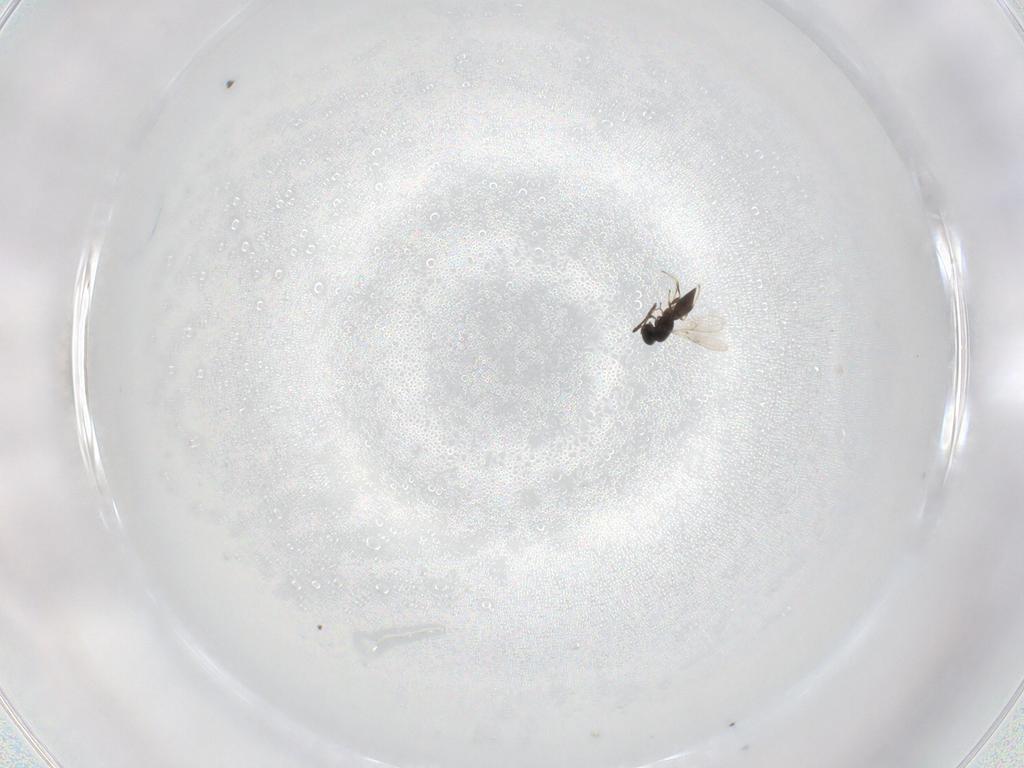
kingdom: Animalia
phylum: Arthropoda
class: Insecta
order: Hymenoptera
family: Scelionidae
